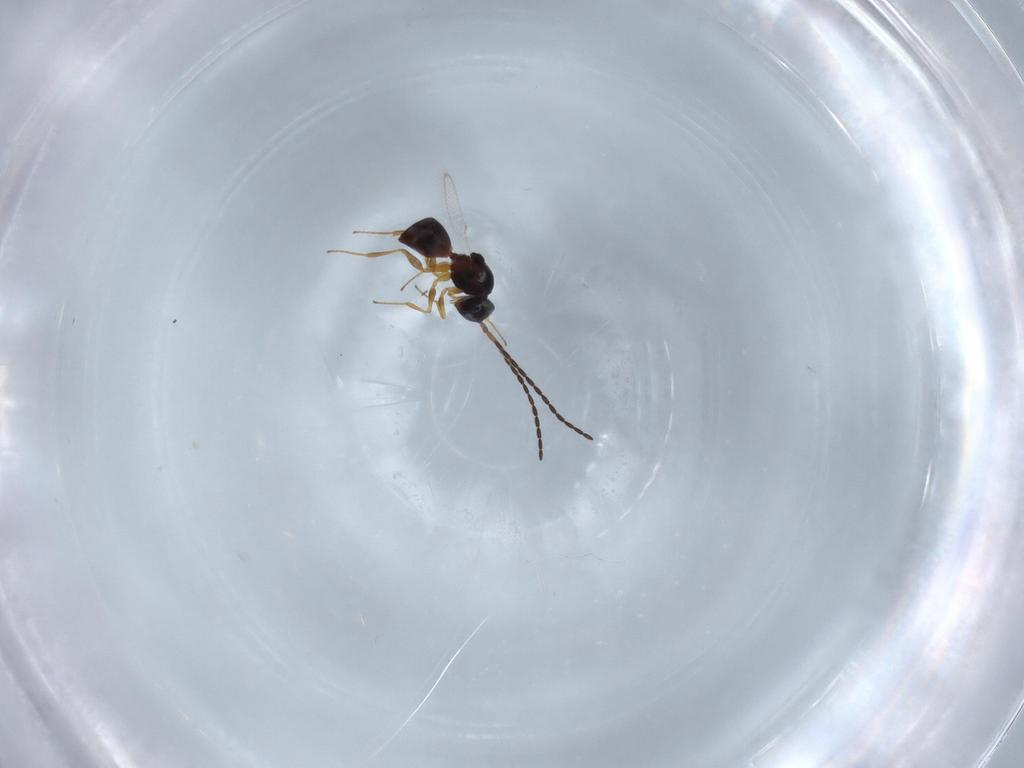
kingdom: Animalia
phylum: Arthropoda
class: Insecta
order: Hymenoptera
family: Figitidae
